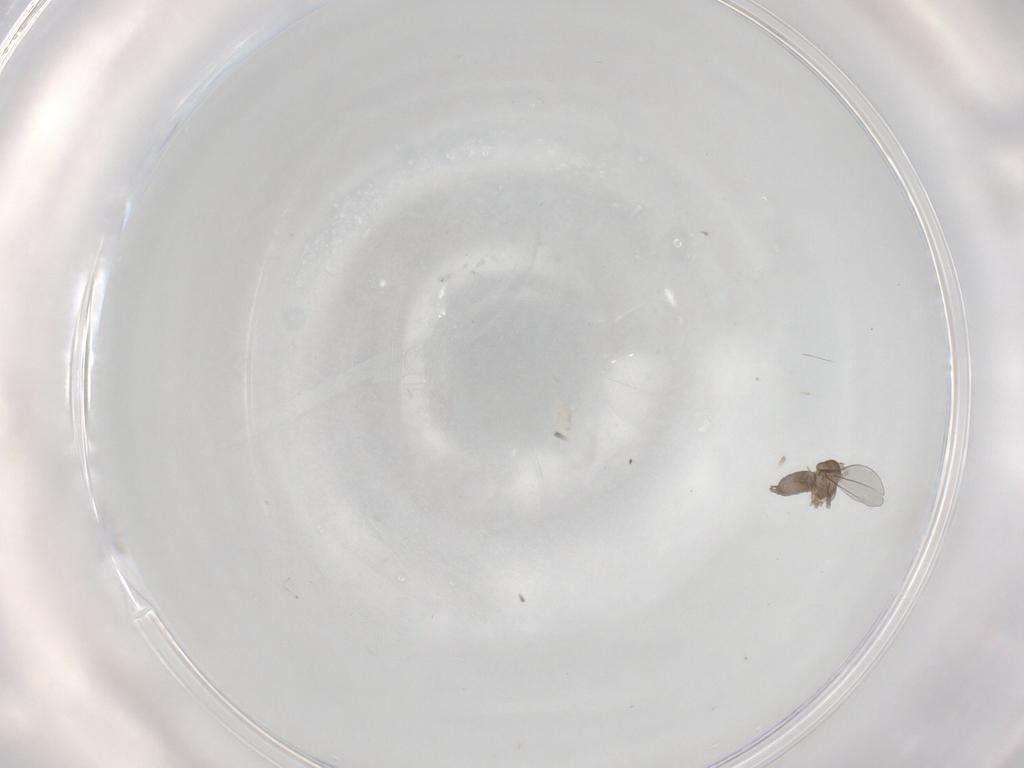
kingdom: Animalia
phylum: Arthropoda
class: Insecta
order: Diptera
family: Cecidomyiidae
